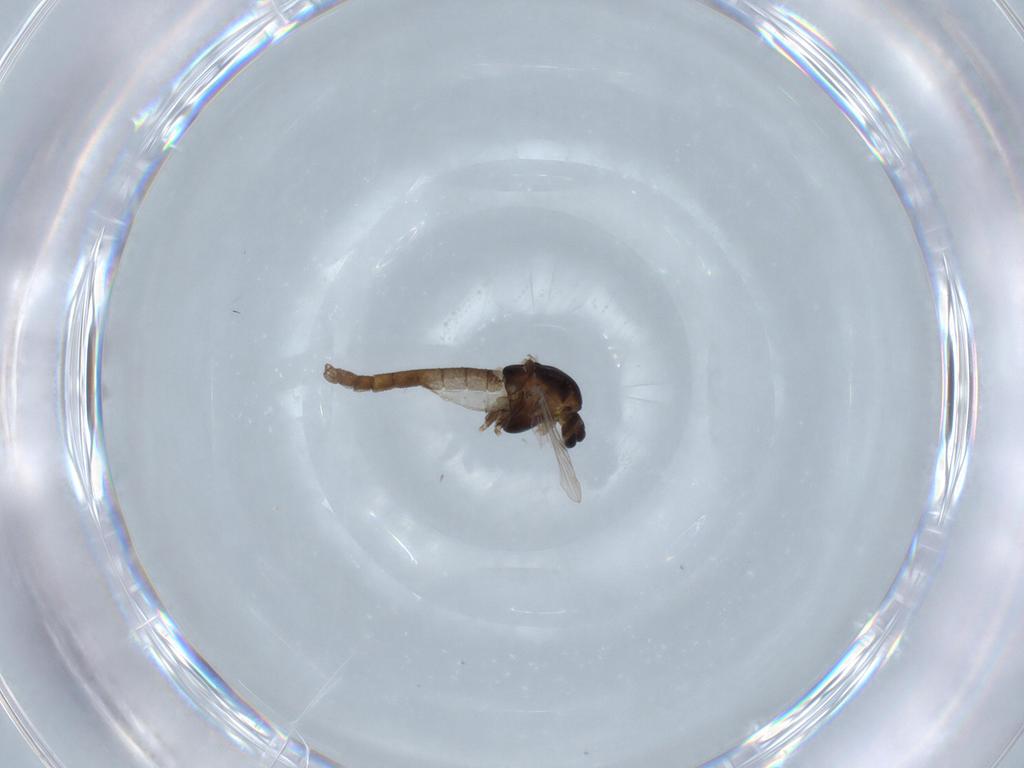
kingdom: Animalia
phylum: Arthropoda
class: Insecta
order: Diptera
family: Chironomidae
